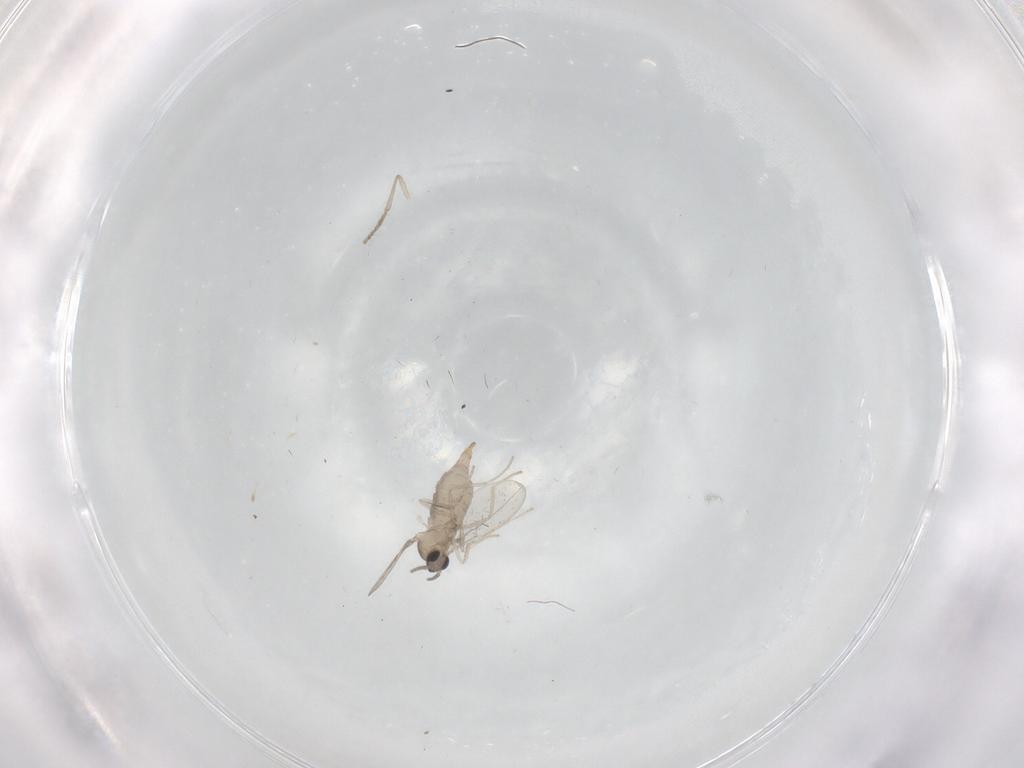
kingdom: Animalia
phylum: Arthropoda
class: Insecta
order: Diptera
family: Cecidomyiidae
